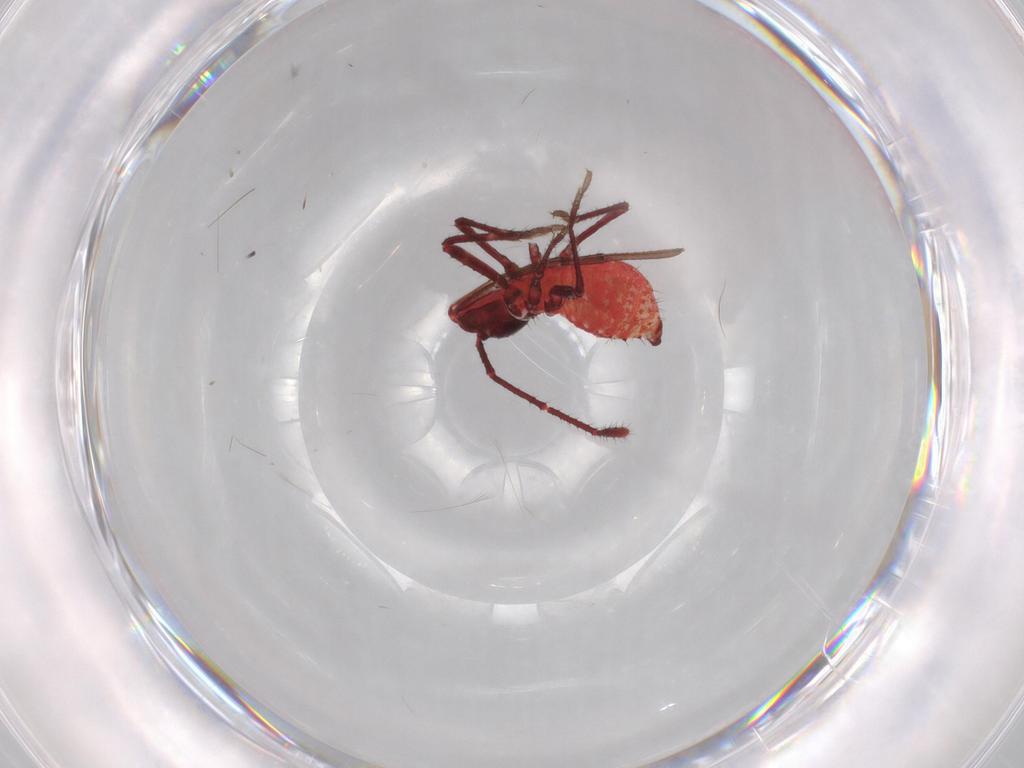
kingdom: Animalia
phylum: Arthropoda
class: Insecta
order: Hemiptera
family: Coreidae
